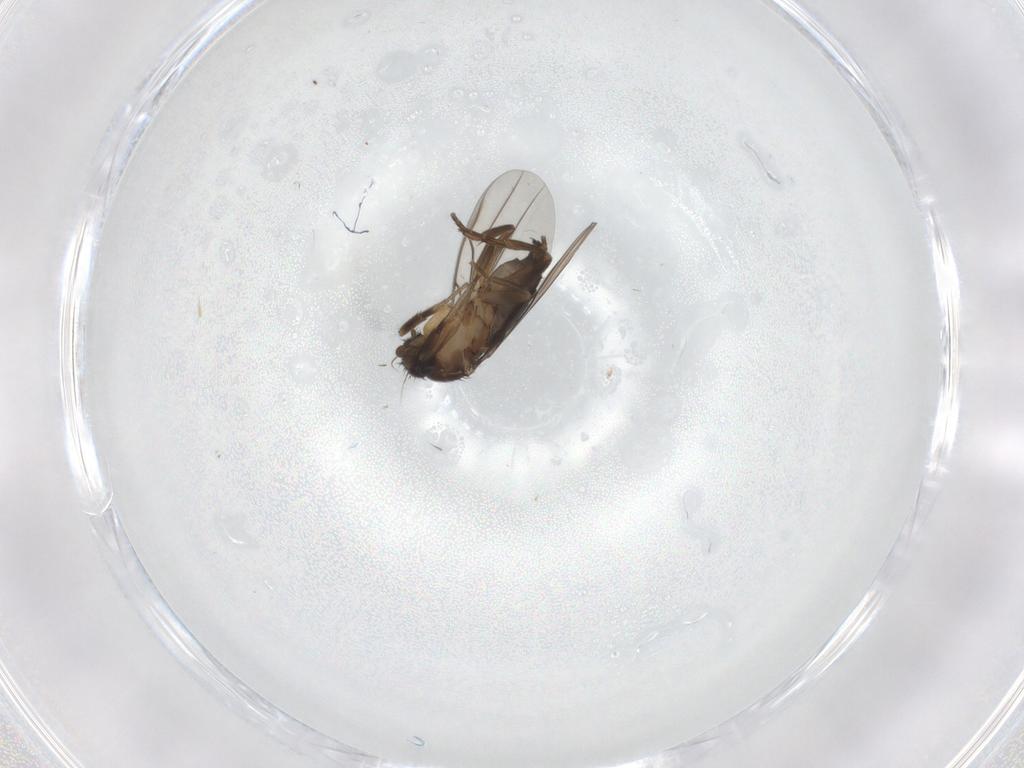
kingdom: Animalia
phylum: Arthropoda
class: Insecta
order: Diptera
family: Phoridae
